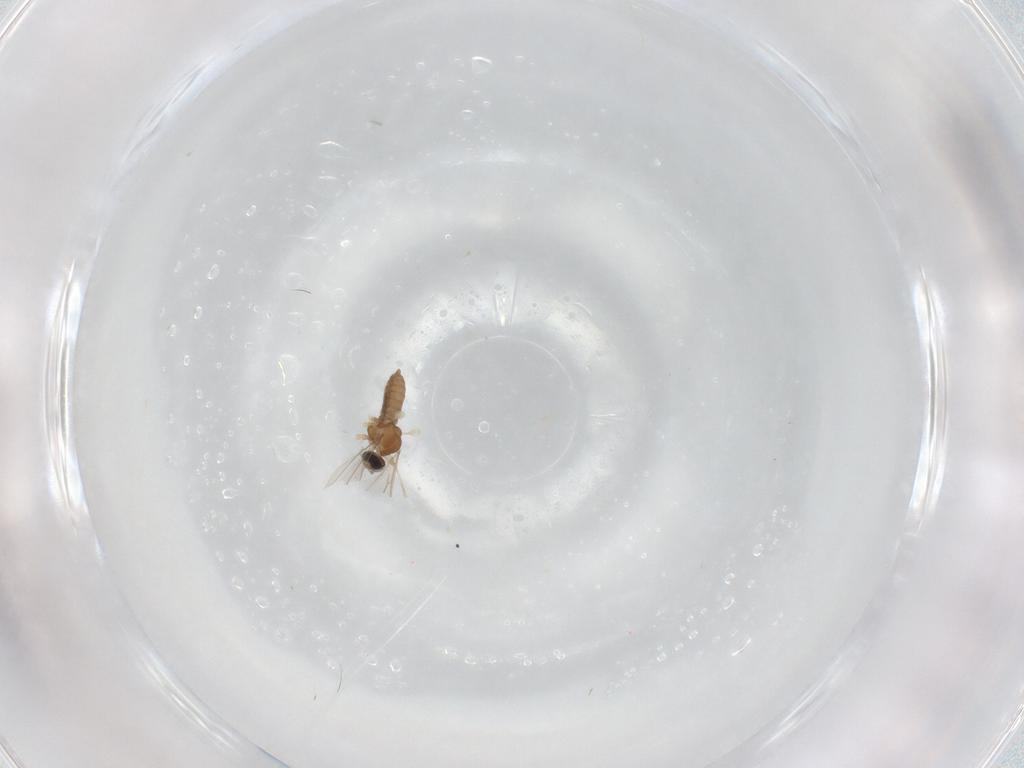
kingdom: Animalia
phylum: Arthropoda
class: Insecta
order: Diptera
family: Cecidomyiidae
